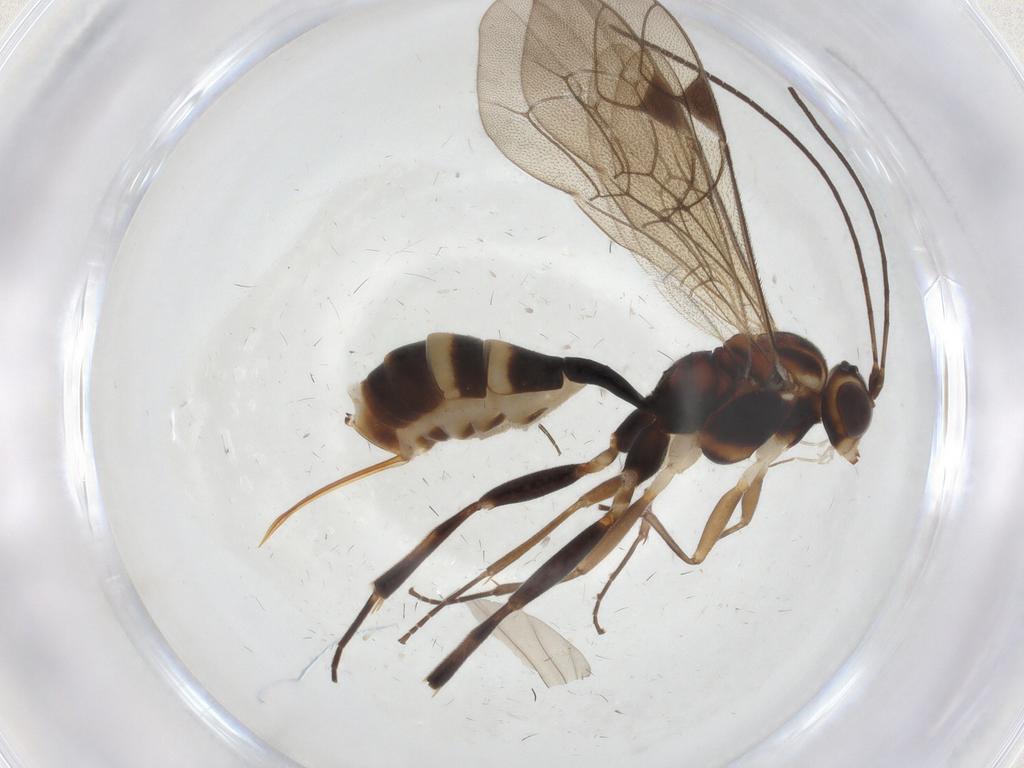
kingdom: Animalia
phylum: Arthropoda
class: Insecta
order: Hymenoptera
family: Ichneumonidae
